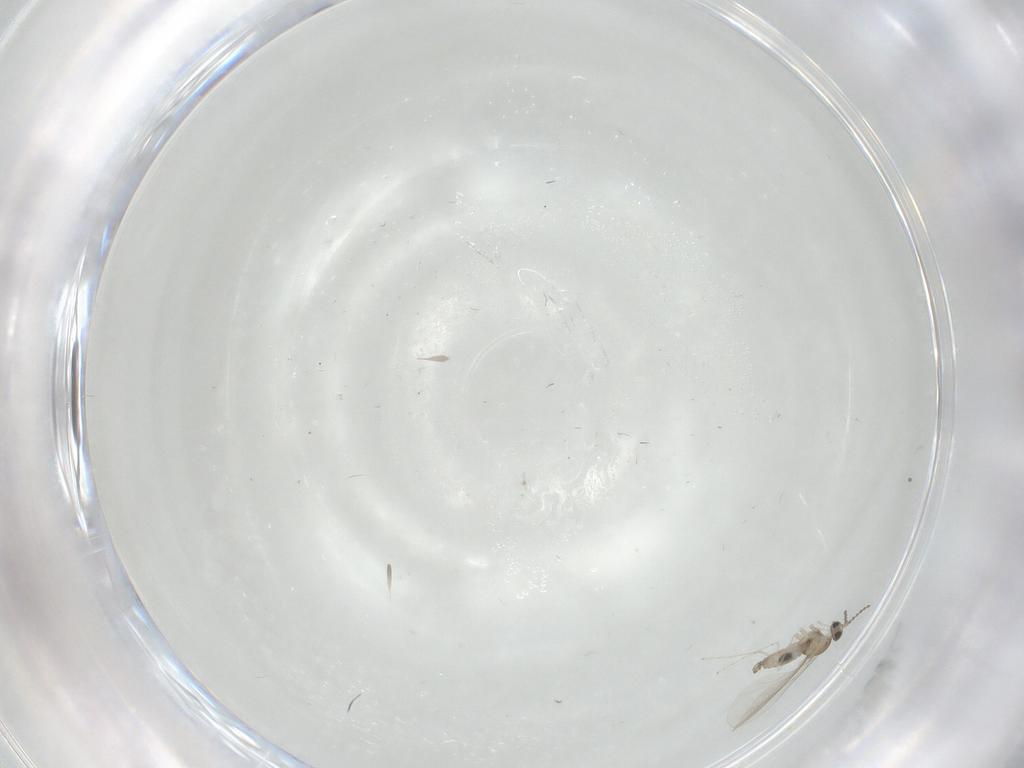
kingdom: Animalia
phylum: Arthropoda
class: Insecta
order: Diptera
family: Cecidomyiidae
